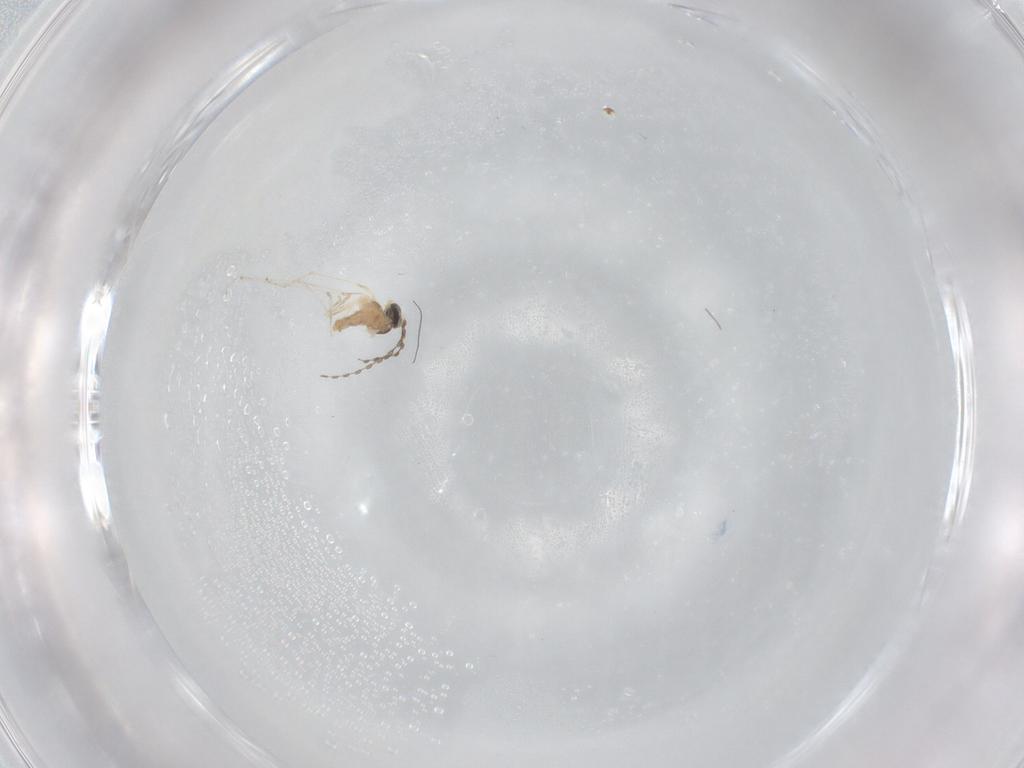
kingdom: Animalia
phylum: Arthropoda
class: Insecta
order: Diptera
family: Cecidomyiidae
